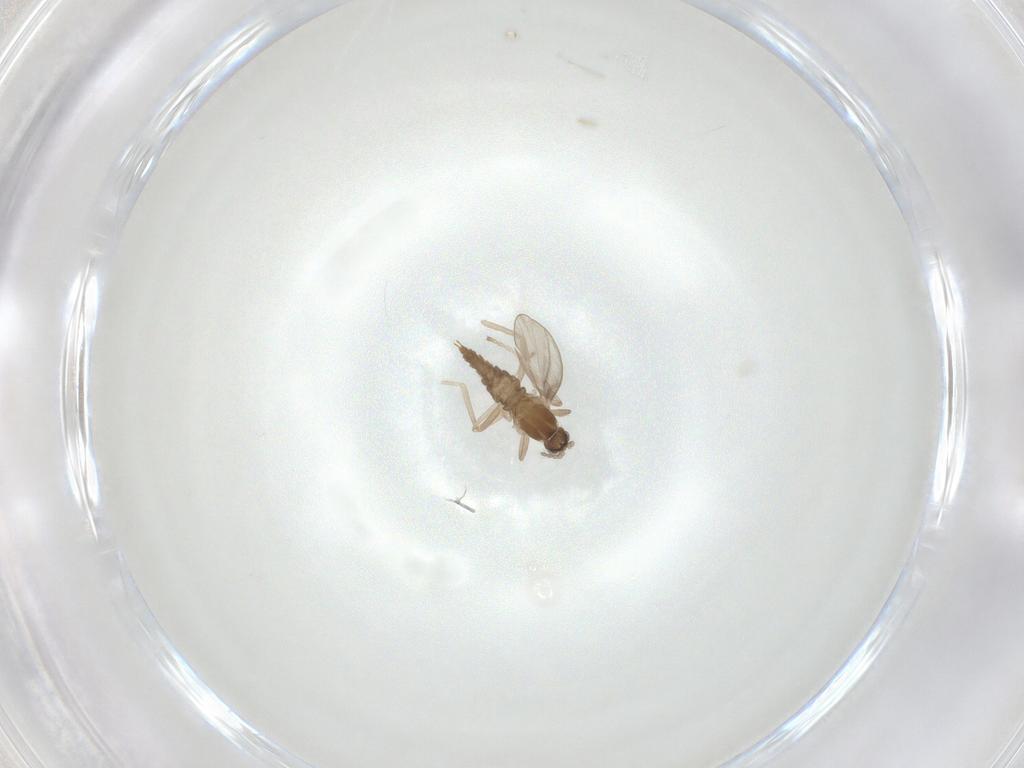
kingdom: Animalia
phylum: Arthropoda
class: Insecta
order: Diptera
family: Cecidomyiidae
